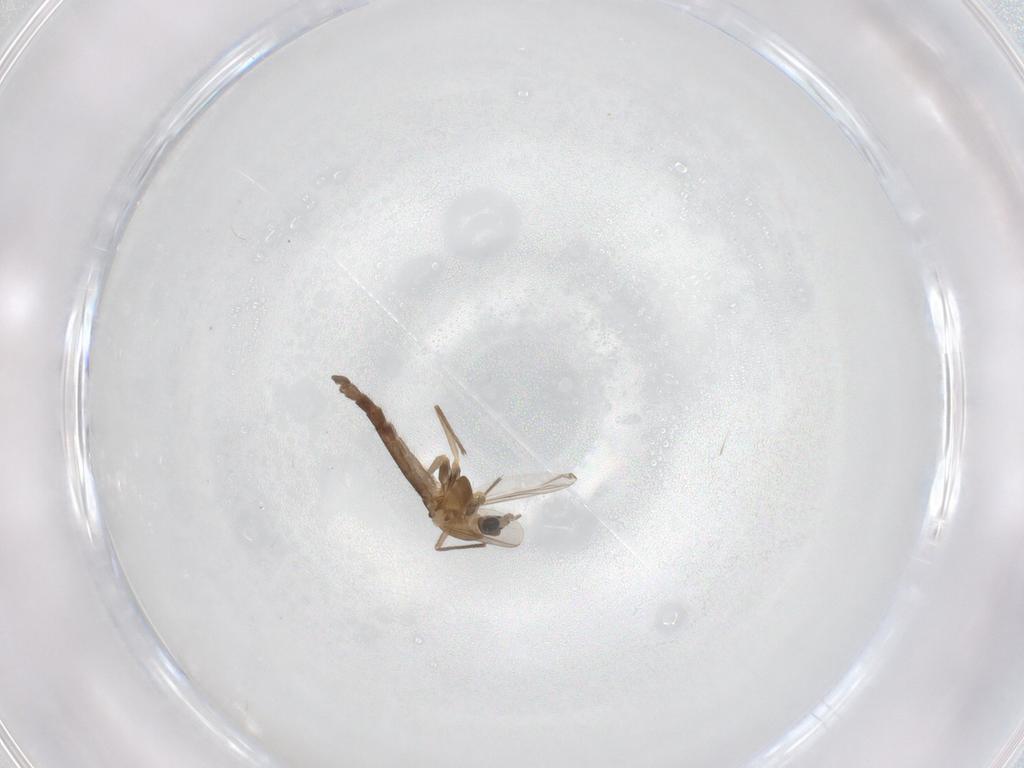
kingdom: Animalia
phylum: Arthropoda
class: Insecta
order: Diptera
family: Chironomidae
